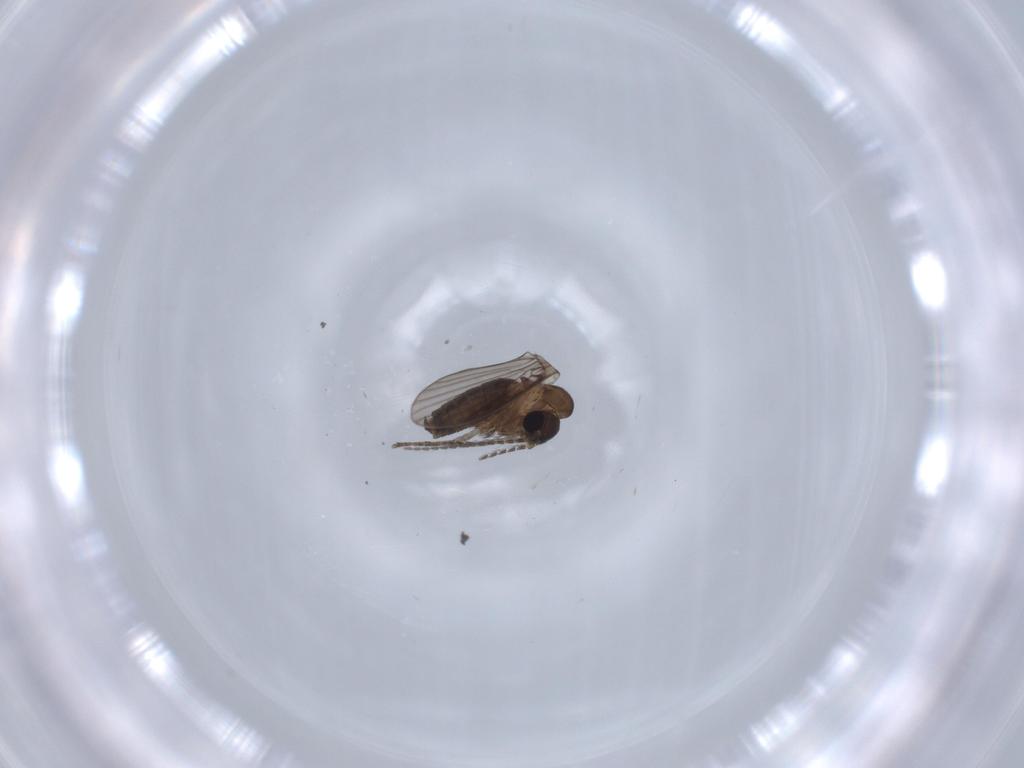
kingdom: Animalia
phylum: Arthropoda
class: Insecta
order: Diptera
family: Psychodidae
